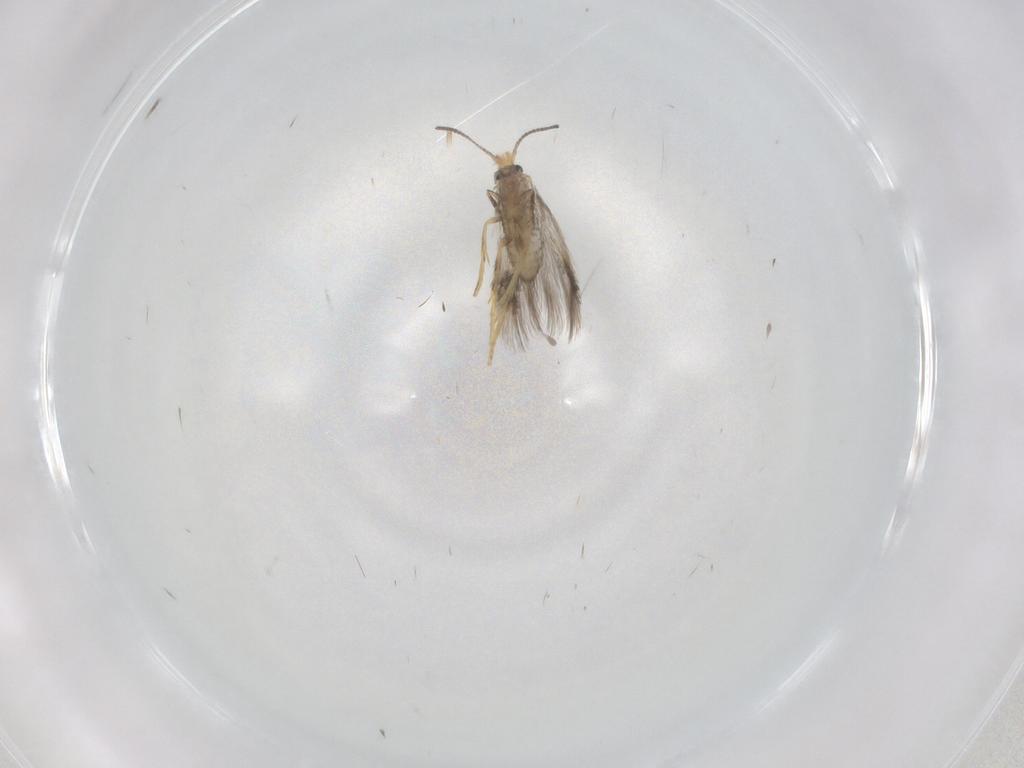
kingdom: Animalia
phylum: Arthropoda
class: Insecta
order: Lepidoptera
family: Nepticulidae
